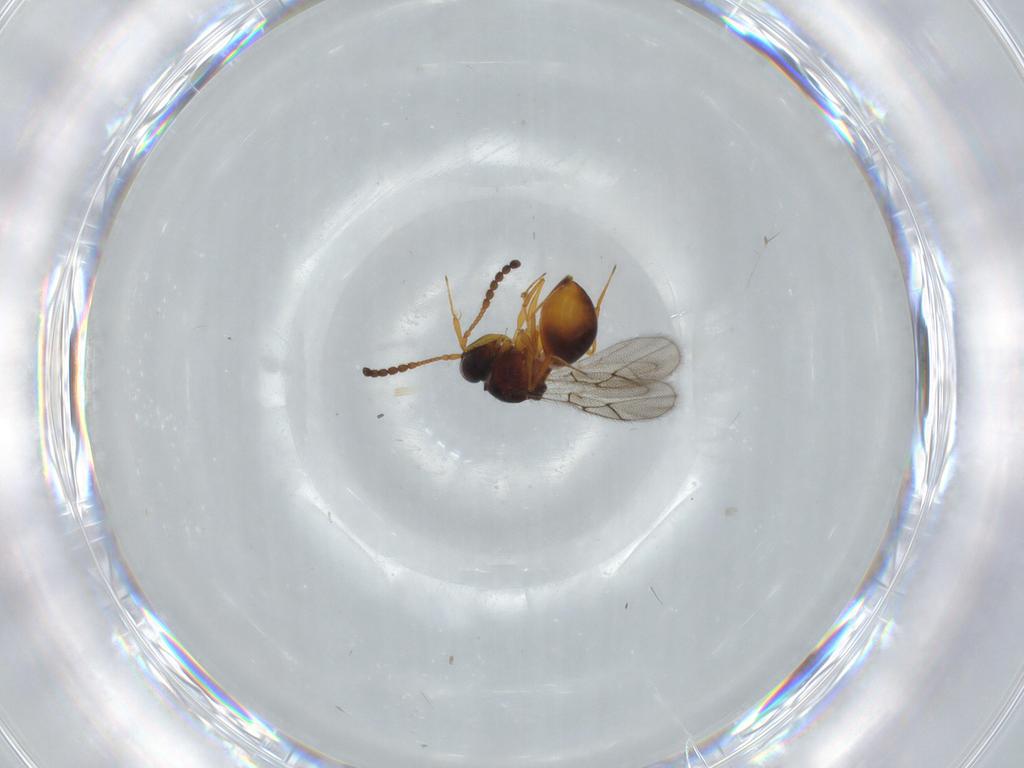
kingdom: Animalia
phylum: Arthropoda
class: Insecta
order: Hymenoptera
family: Figitidae
